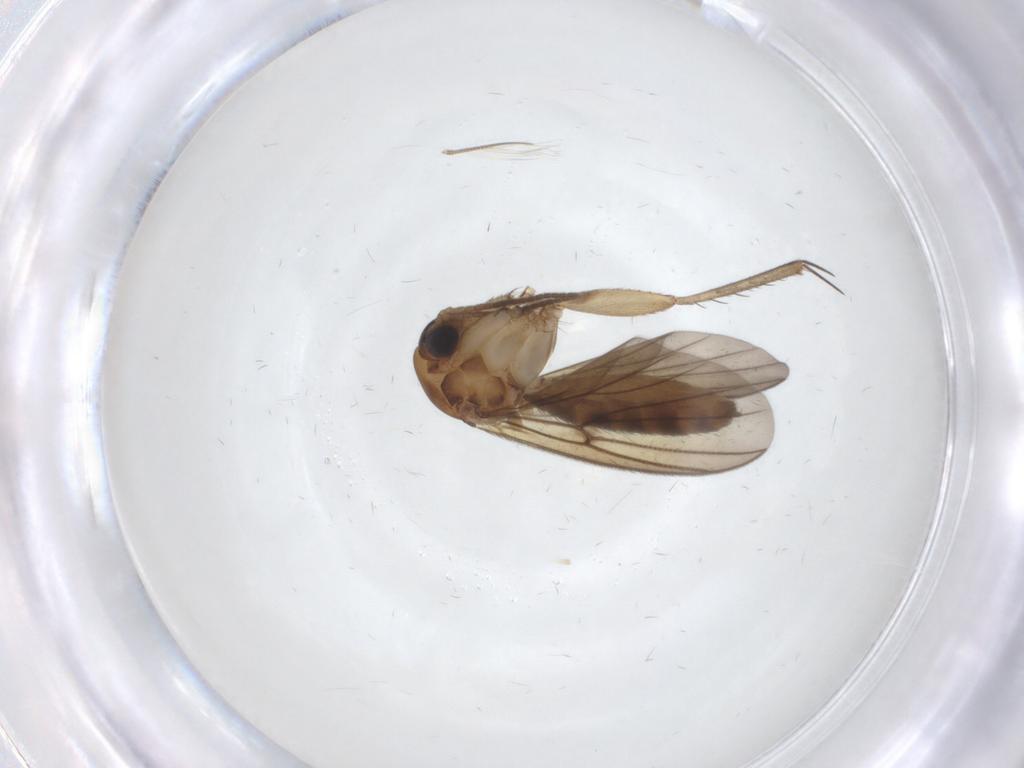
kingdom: Animalia
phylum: Arthropoda
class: Insecta
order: Diptera
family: Mycetophilidae
